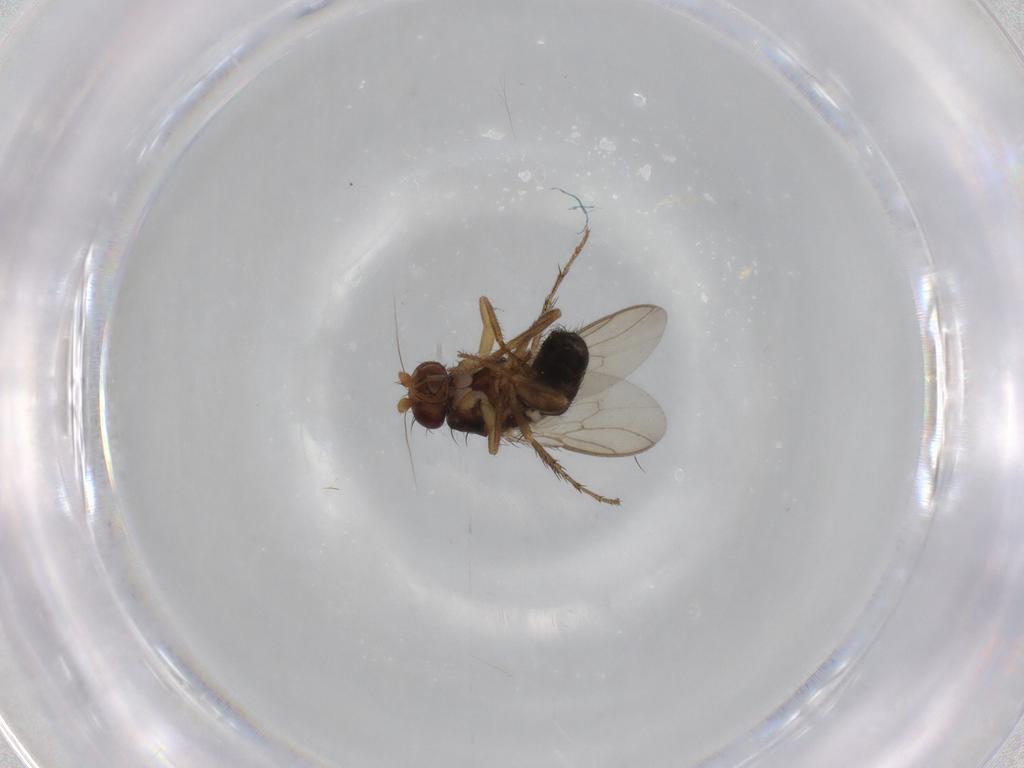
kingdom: Animalia
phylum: Arthropoda
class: Insecta
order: Diptera
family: Sphaeroceridae
